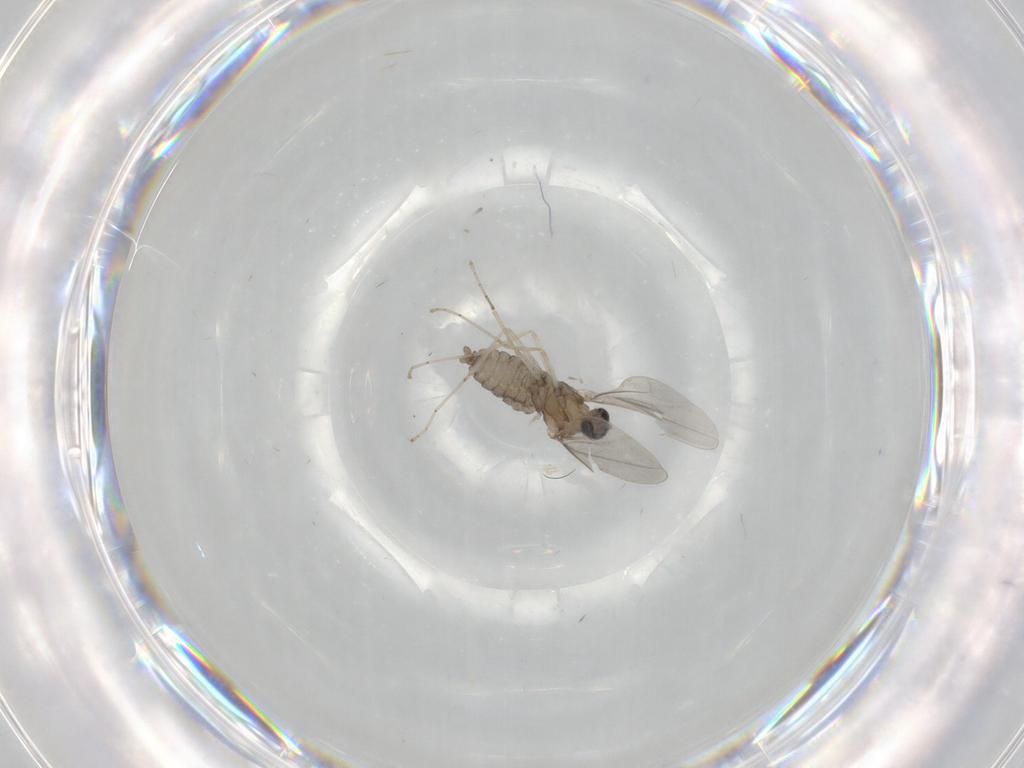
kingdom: Animalia
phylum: Arthropoda
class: Insecta
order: Diptera
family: Cecidomyiidae
